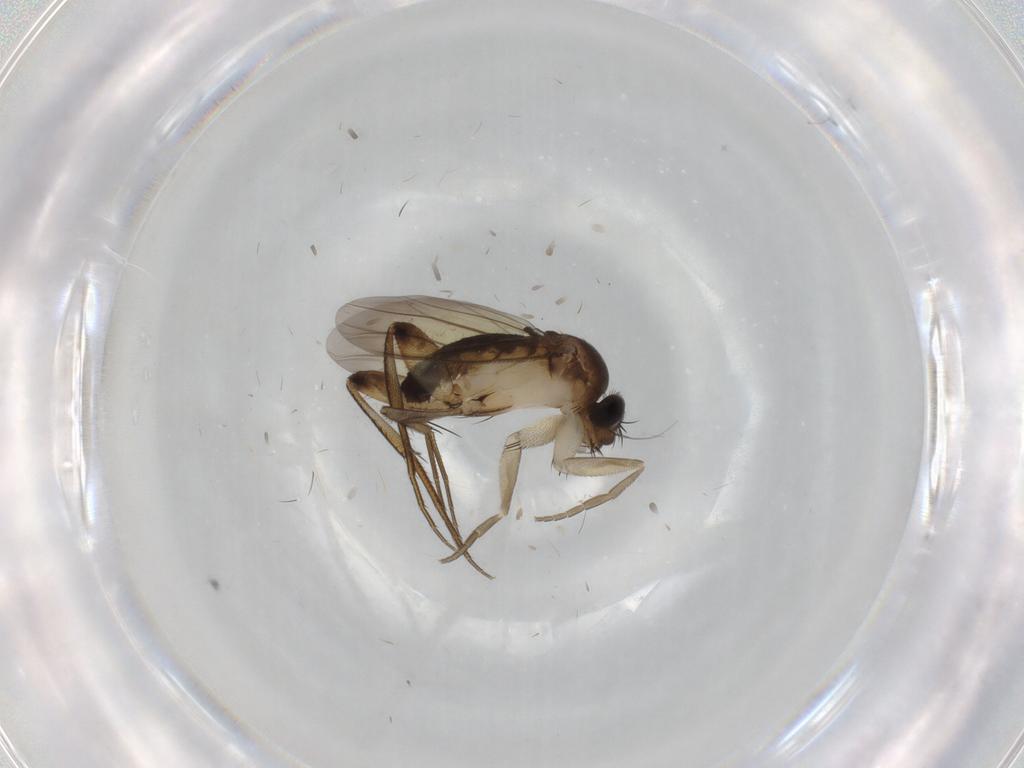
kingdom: Animalia
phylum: Arthropoda
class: Insecta
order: Diptera
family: Phoridae
